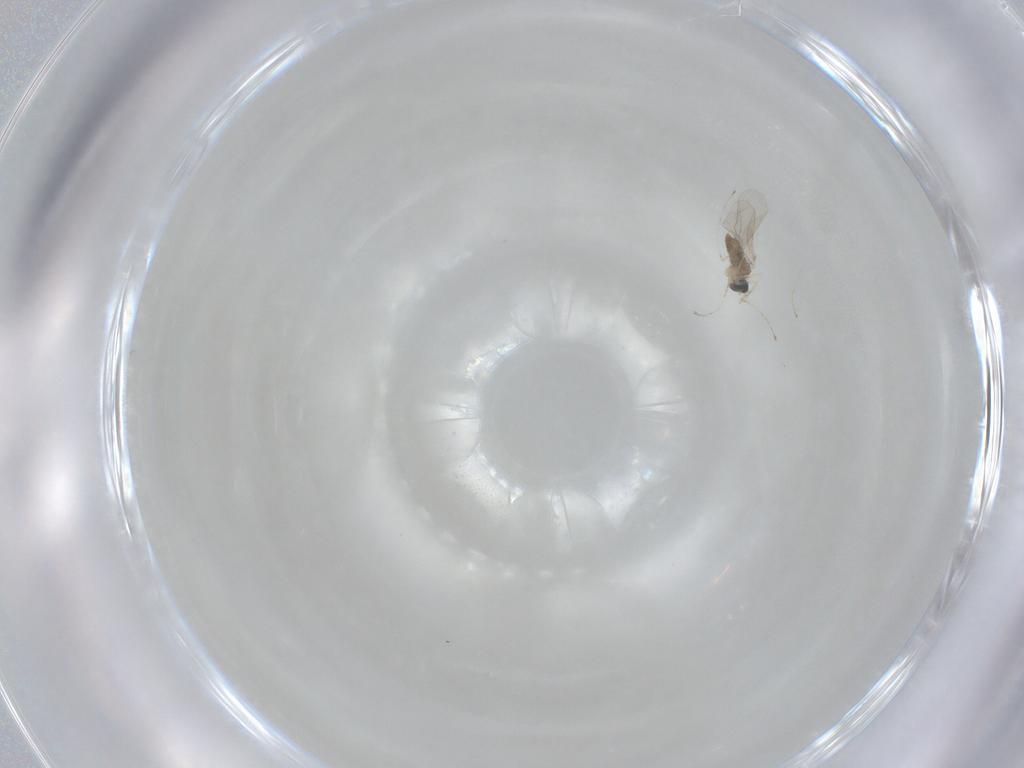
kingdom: Animalia
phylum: Arthropoda
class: Insecta
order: Diptera
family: Cecidomyiidae
